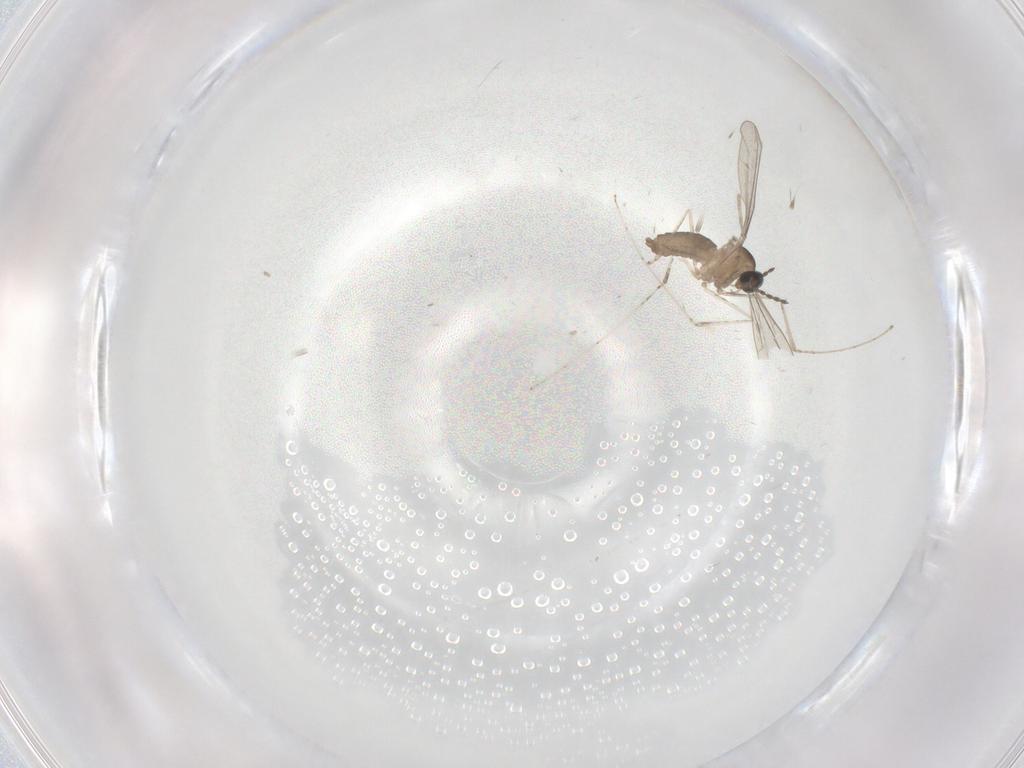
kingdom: Animalia
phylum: Arthropoda
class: Insecta
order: Diptera
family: Cecidomyiidae
